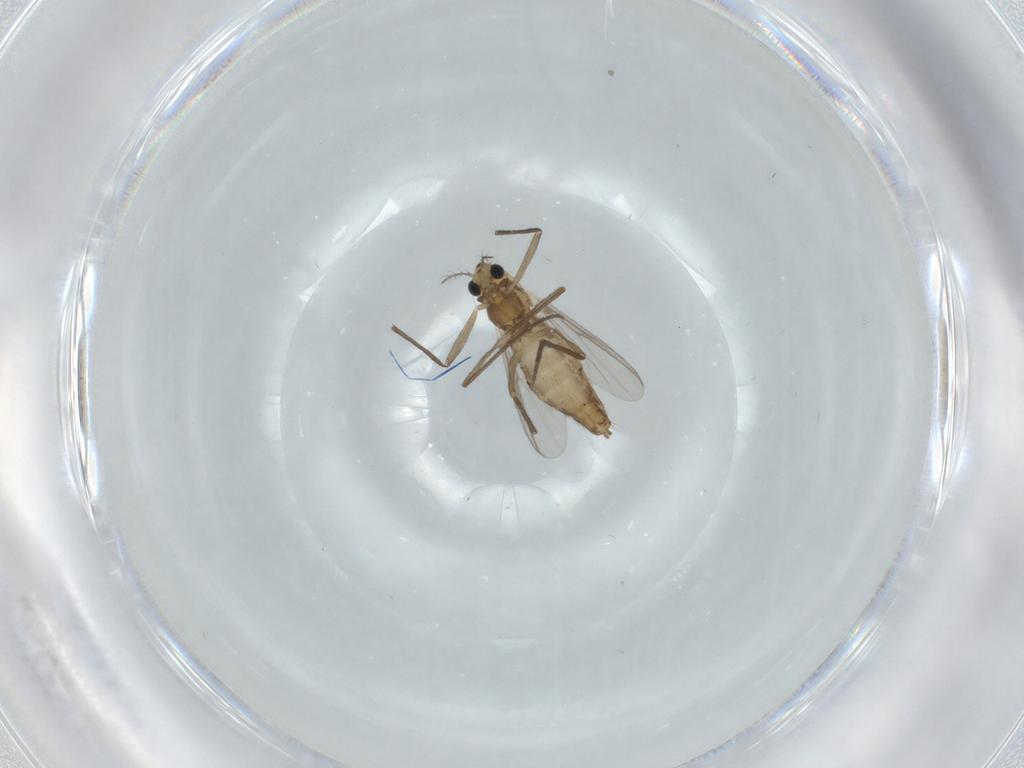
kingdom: Animalia
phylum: Arthropoda
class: Insecta
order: Diptera
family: Chironomidae
